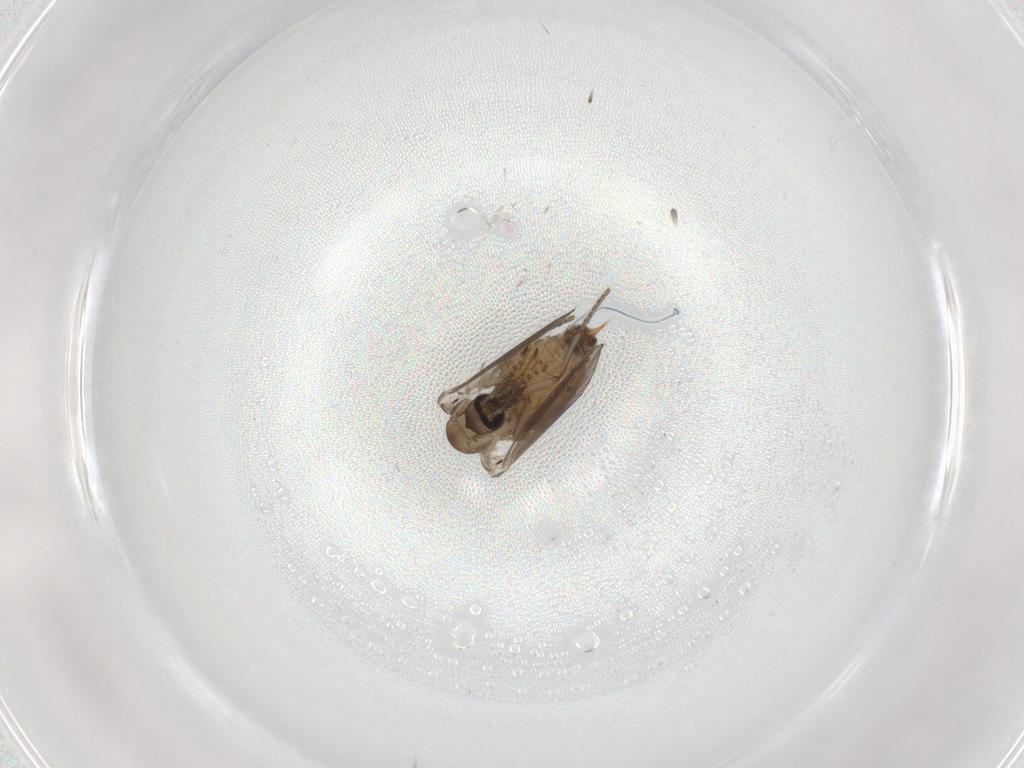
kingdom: Animalia
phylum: Arthropoda
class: Insecta
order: Diptera
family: Psychodidae
